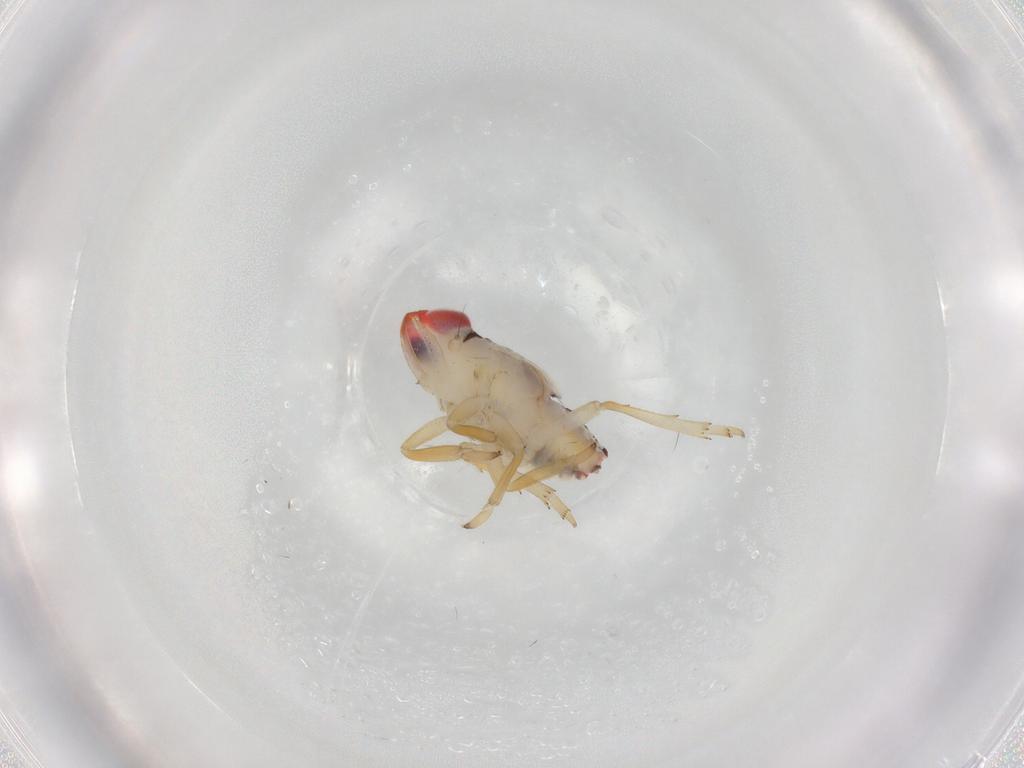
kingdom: Animalia
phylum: Arthropoda
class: Insecta
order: Hemiptera
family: Issidae
